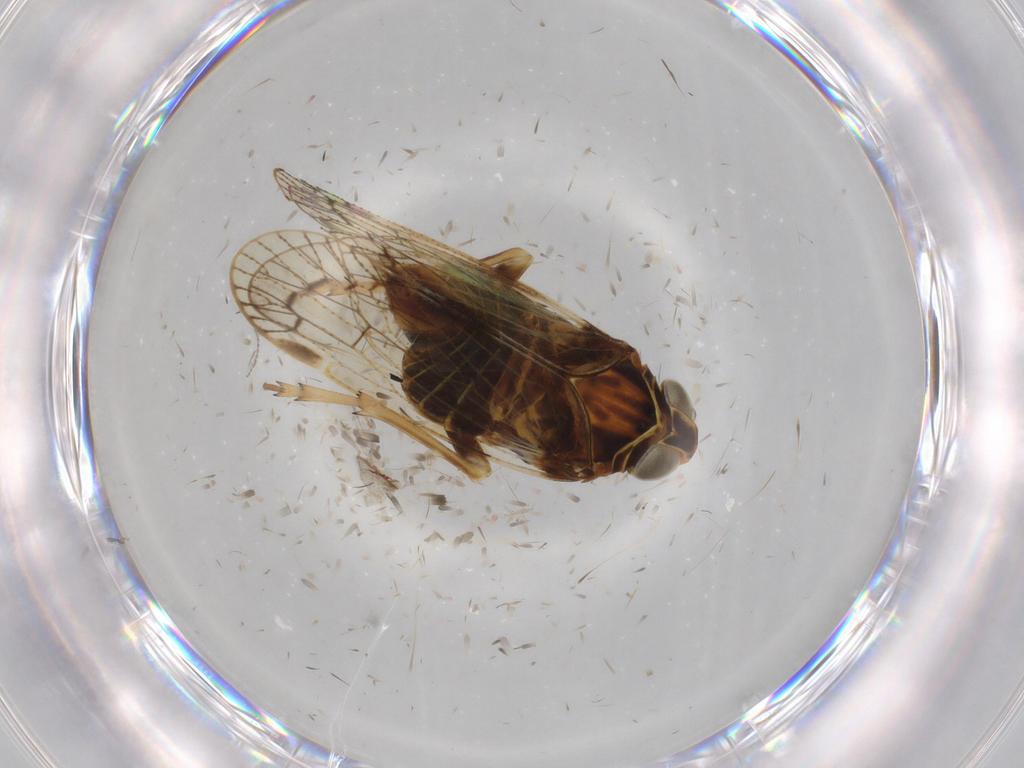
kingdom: Animalia
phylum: Arthropoda
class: Insecta
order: Hemiptera
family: Cixiidae
